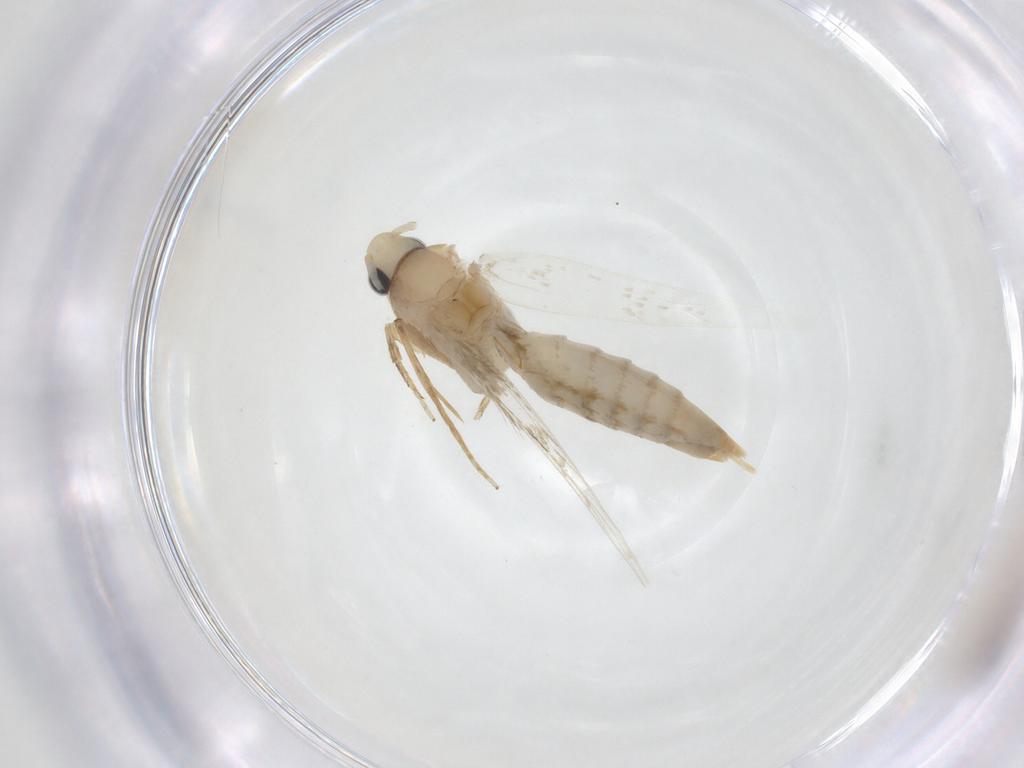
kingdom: Animalia
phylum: Arthropoda
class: Insecta
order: Lepidoptera
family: Tineidae
